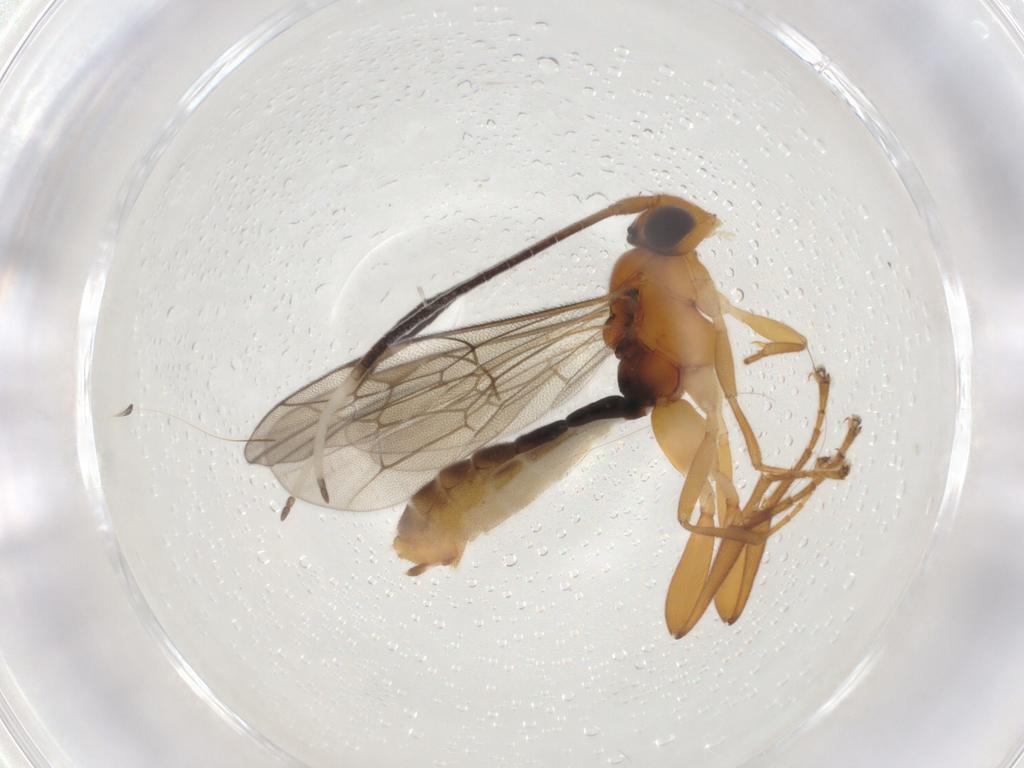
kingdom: Animalia
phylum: Arthropoda
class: Insecta
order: Hymenoptera
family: Ichneumonidae
